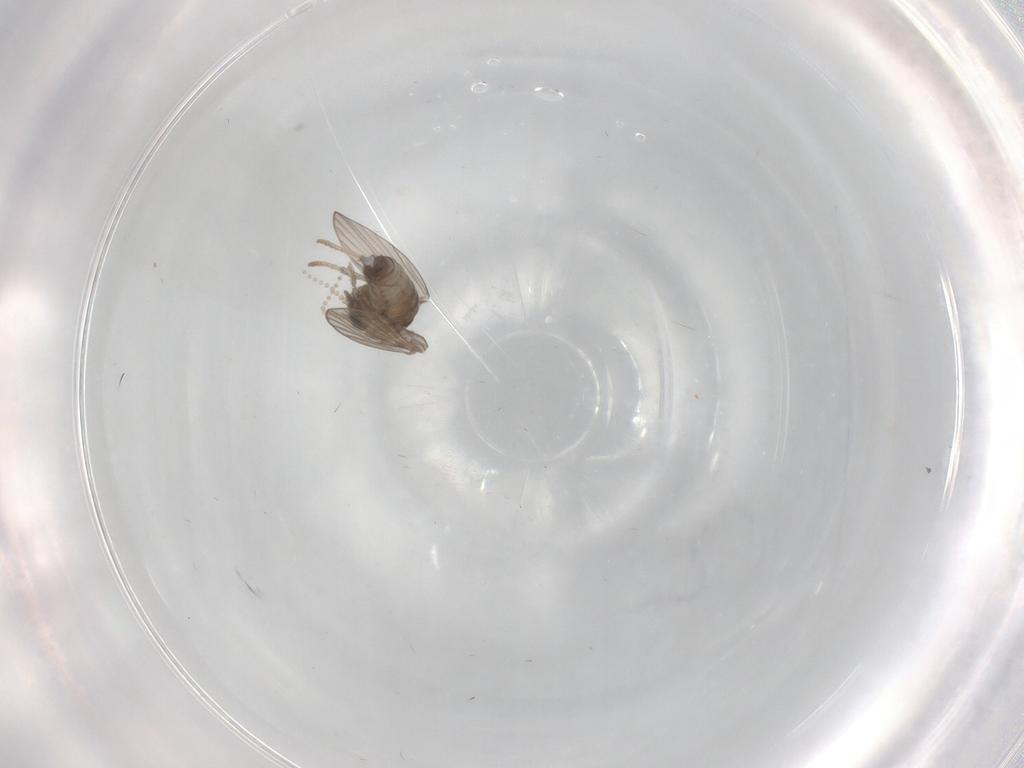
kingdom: Animalia
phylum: Arthropoda
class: Insecta
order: Diptera
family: Psychodidae
